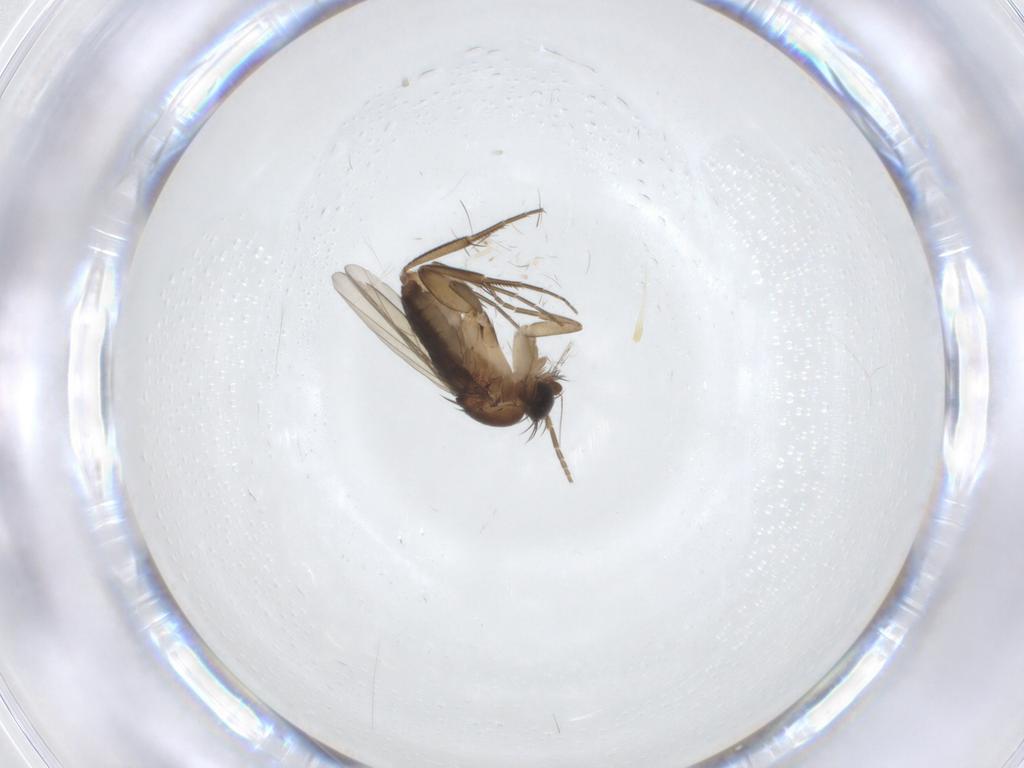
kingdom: Animalia
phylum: Arthropoda
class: Insecta
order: Diptera
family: Phoridae
